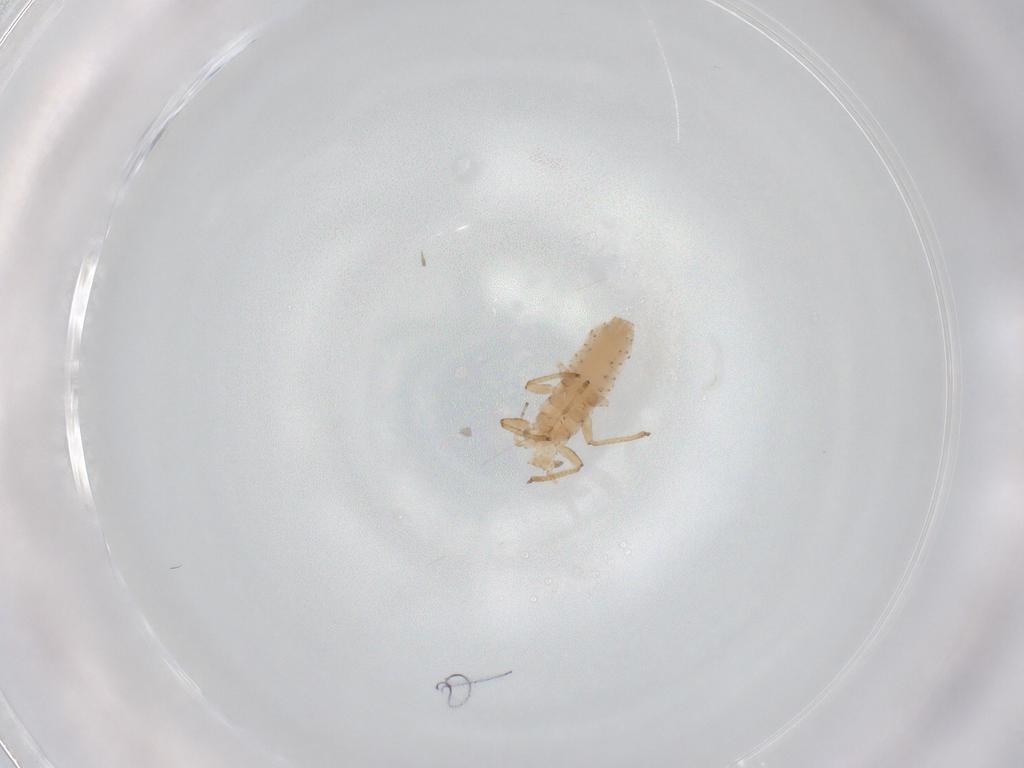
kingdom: Animalia
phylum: Arthropoda
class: Insecta
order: Hemiptera
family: Aphididae
